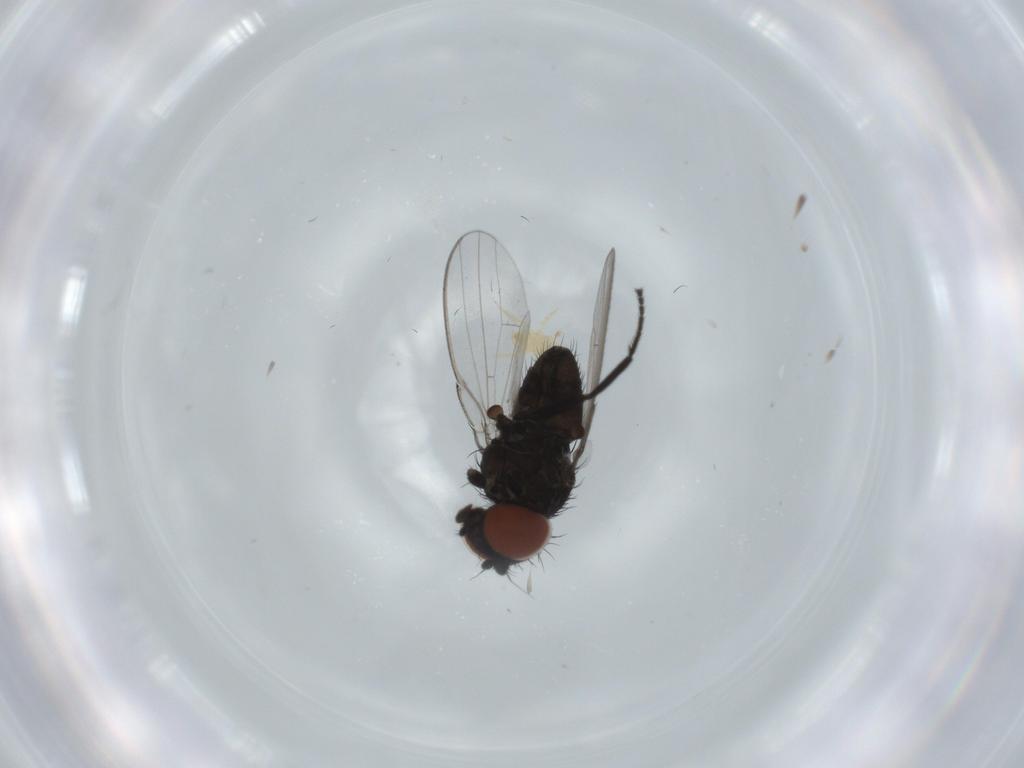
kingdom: Animalia
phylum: Arthropoda
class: Insecta
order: Diptera
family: Milichiidae
